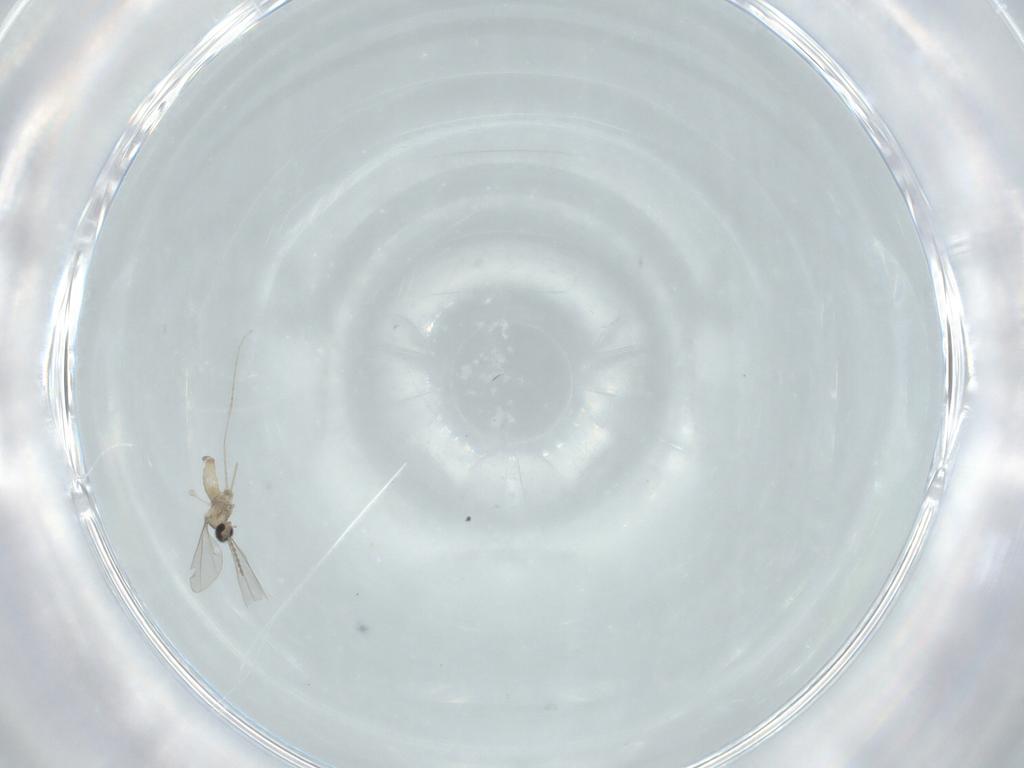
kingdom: Animalia
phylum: Arthropoda
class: Insecta
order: Diptera
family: Cecidomyiidae
